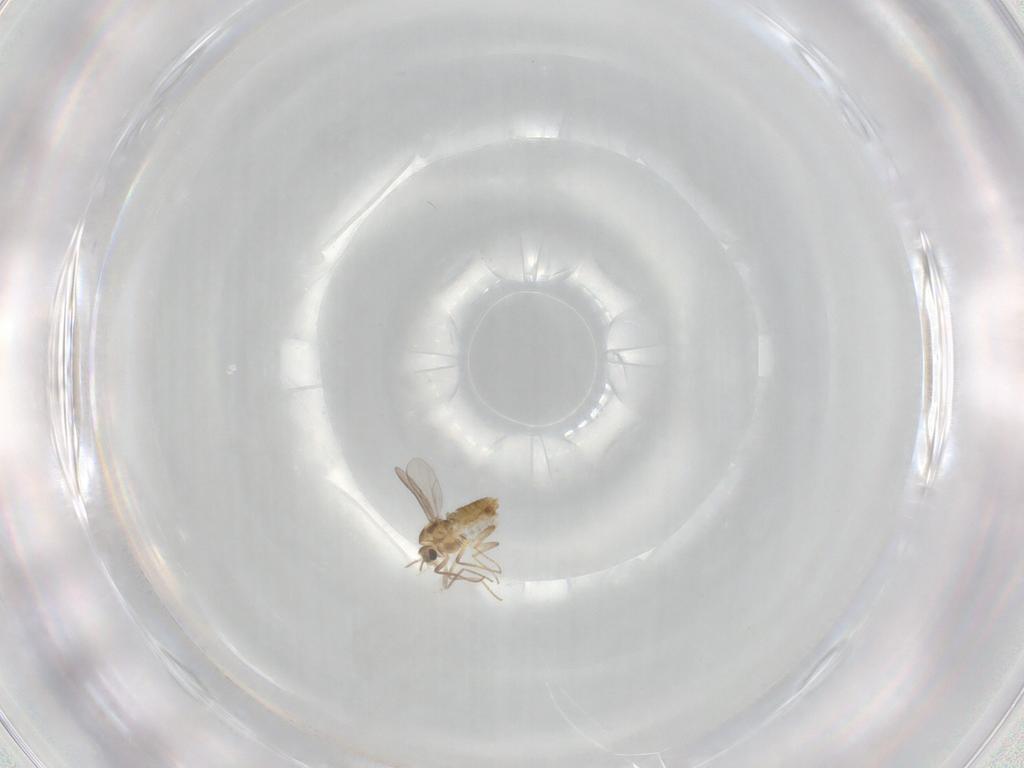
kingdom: Animalia
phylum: Arthropoda
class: Insecta
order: Diptera
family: Chironomidae
